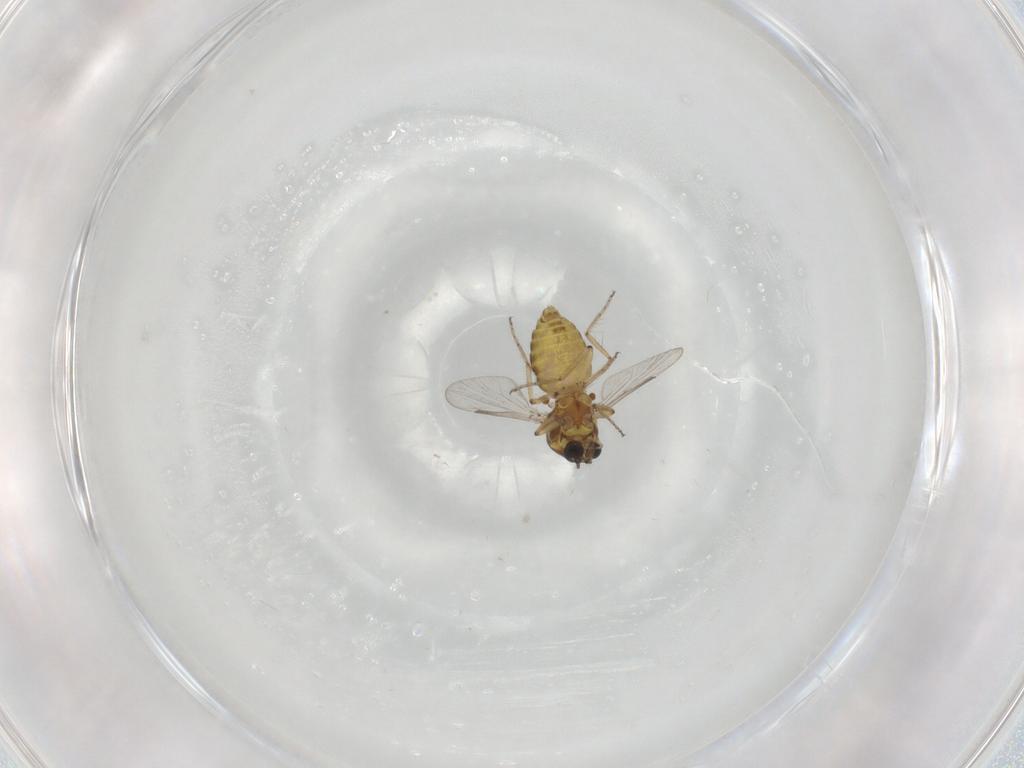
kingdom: Animalia
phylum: Arthropoda
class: Insecta
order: Diptera
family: Ceratopogonidae
